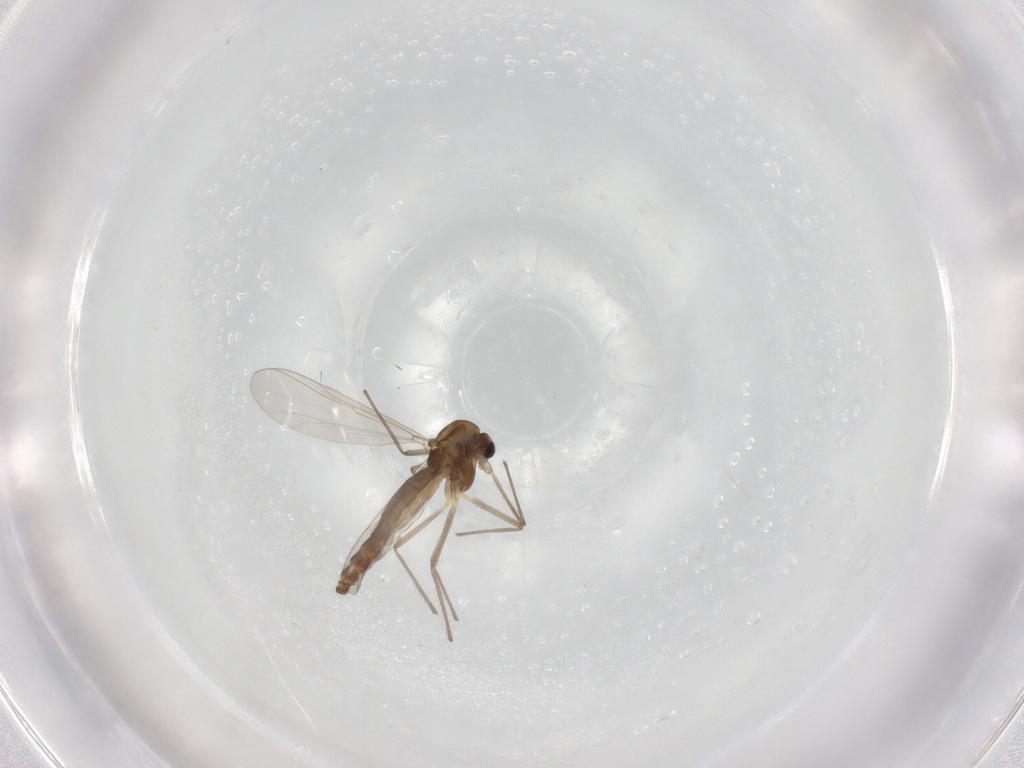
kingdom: Animalia
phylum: Arthropoda
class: Insecta
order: Diptera
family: Chironomidae
